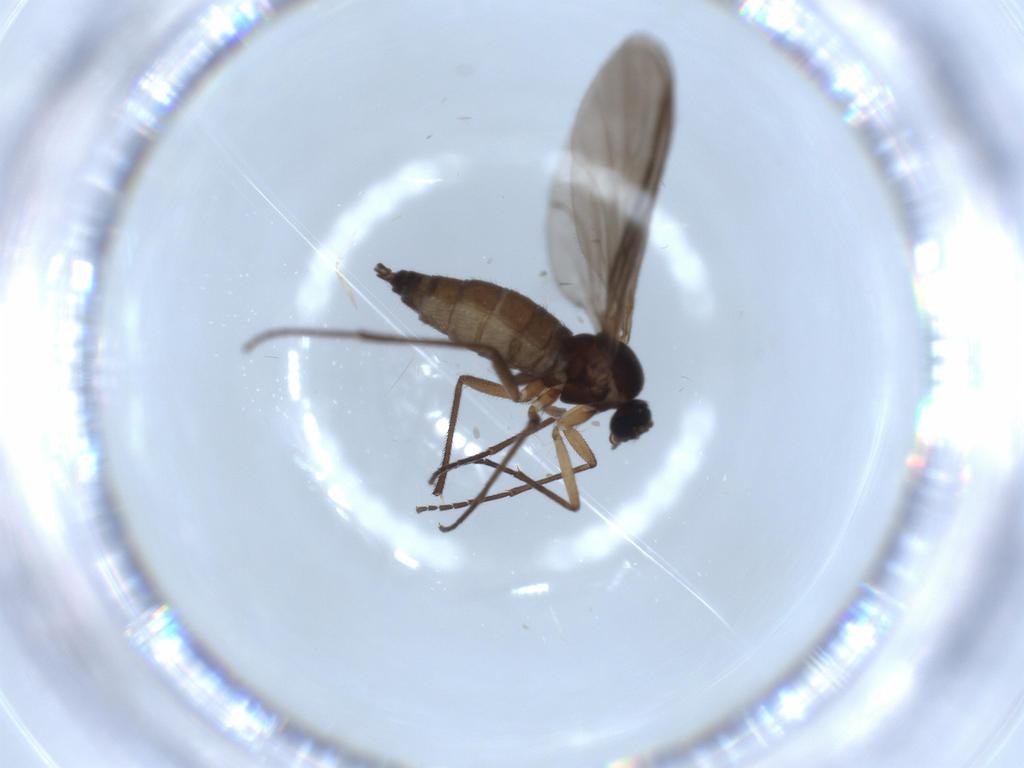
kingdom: Animalia
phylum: Arthropoda
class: Insecta
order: Diptera
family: Sciaridae
